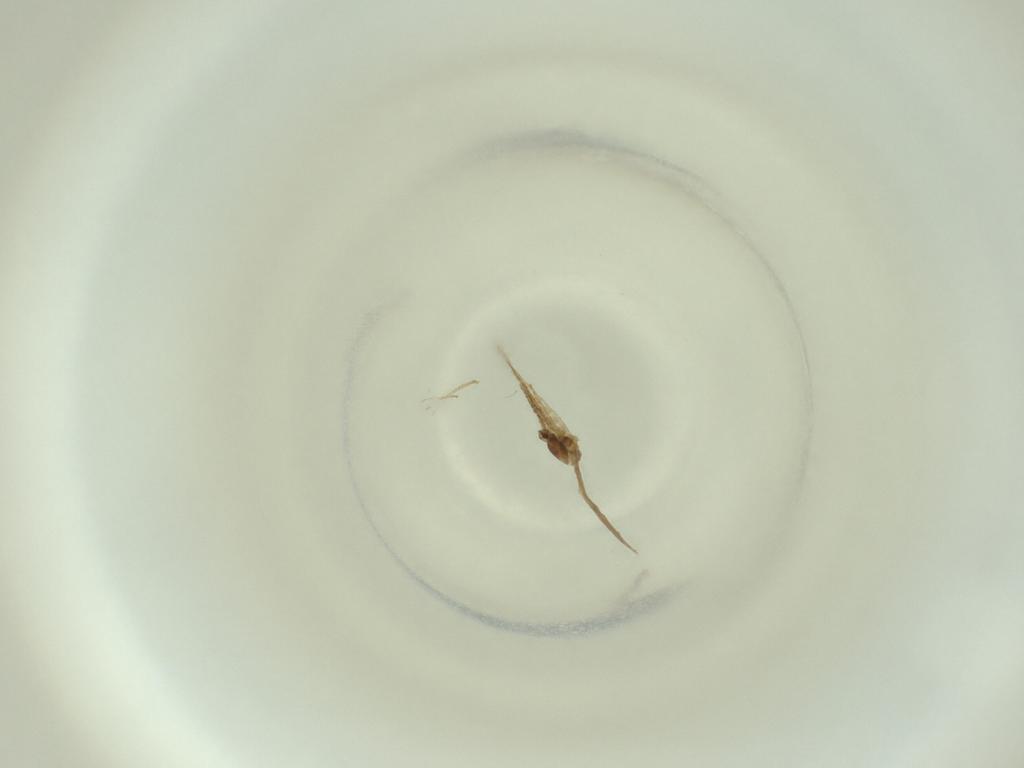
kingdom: Animalia
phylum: Arthropoda
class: Insecta
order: Diptera
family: Cecidomyiidae
